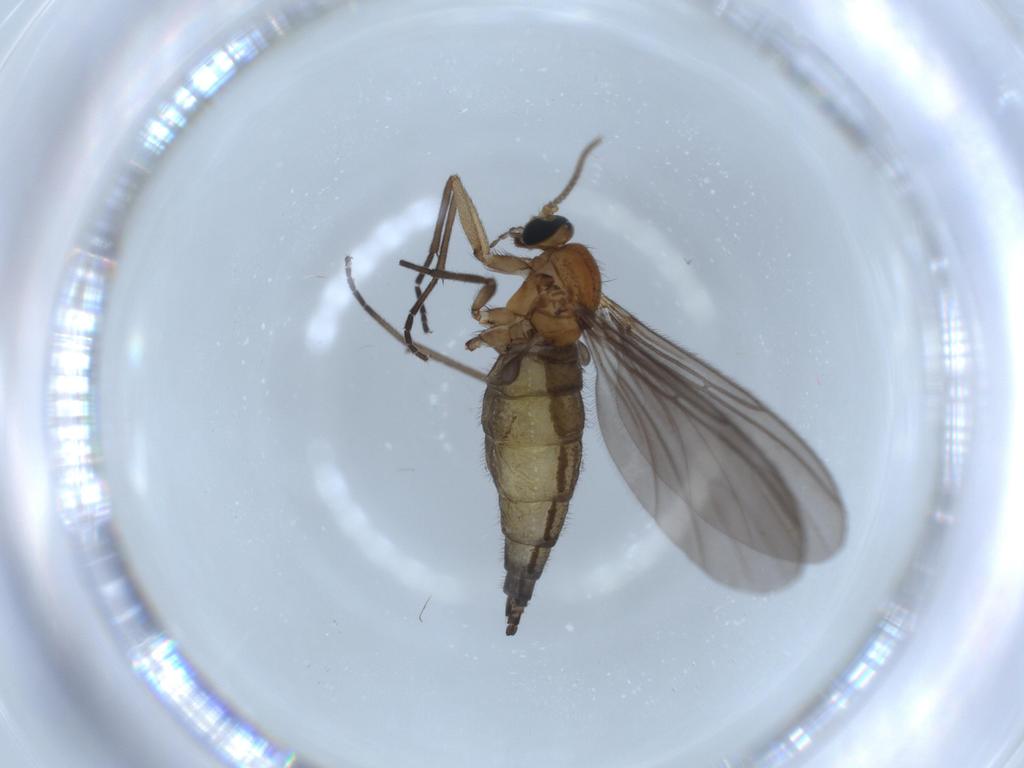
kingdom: Animalia
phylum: Arthropoda
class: Insecta
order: Diptera
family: Sciaridae
